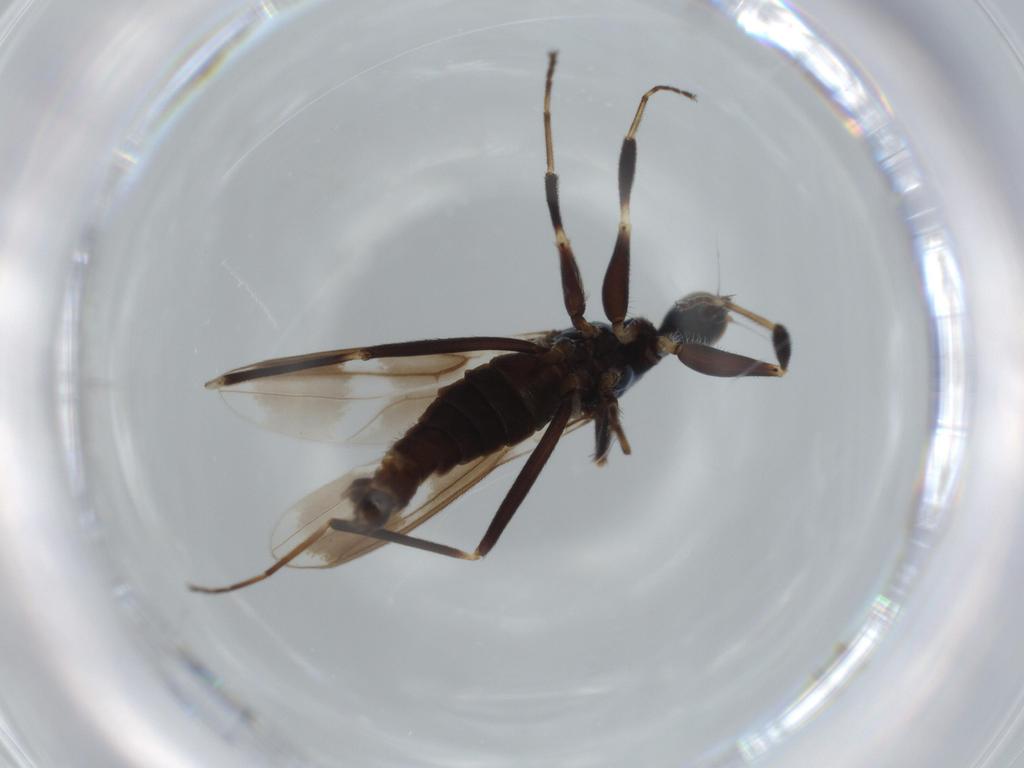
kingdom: Animalia
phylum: Arthropoda
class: Insecta
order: Diptera
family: Hybotidae
